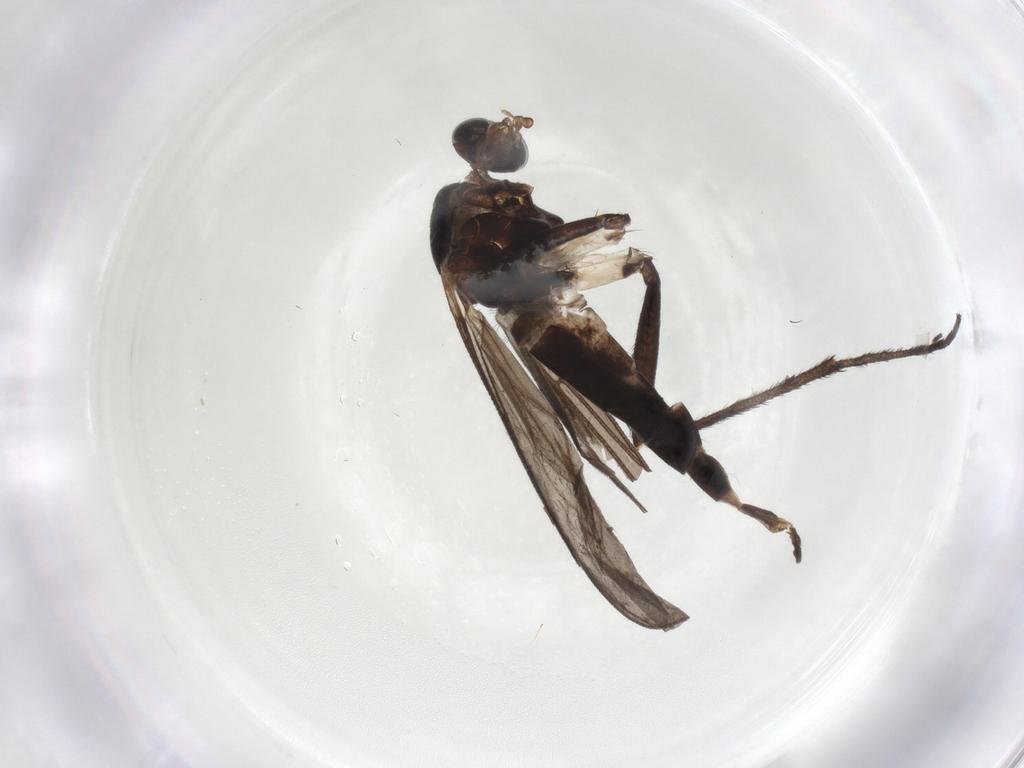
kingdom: Animalia
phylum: Arthropoda
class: Insecta
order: Diptera
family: Sciaridae
